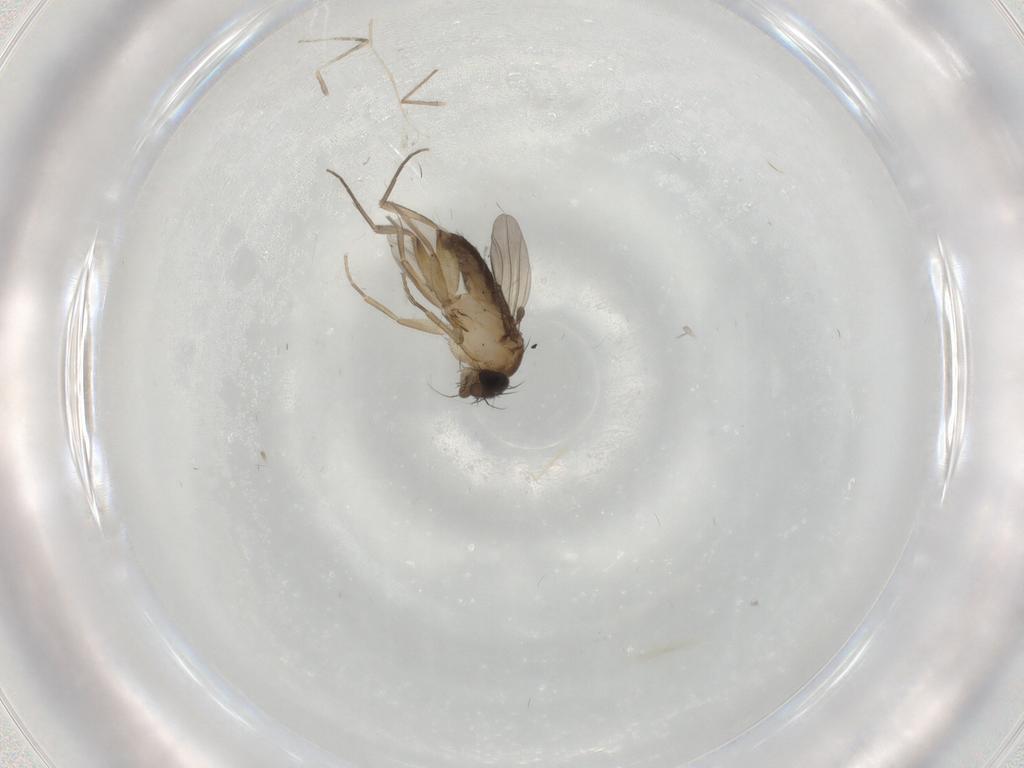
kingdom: Animalia
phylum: Arthropoda
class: Insecta
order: Diptera
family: Phoridae
